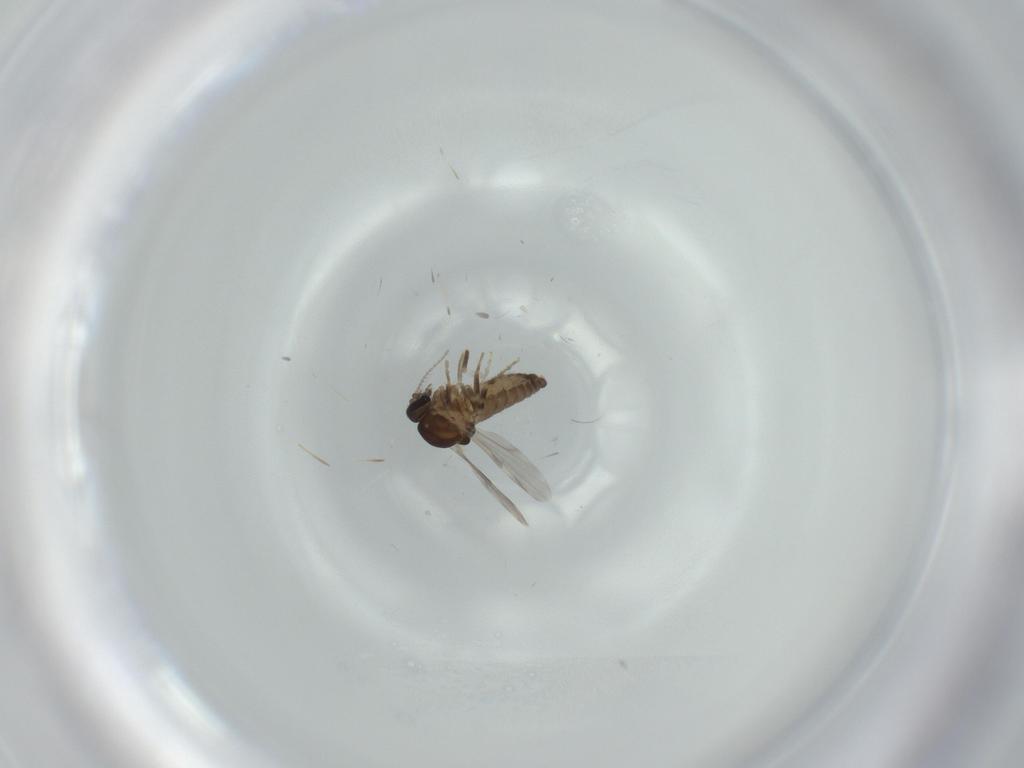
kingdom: Animalia
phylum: Arthropoda
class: Insecta
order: Diptera
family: Ceratopogonidae
